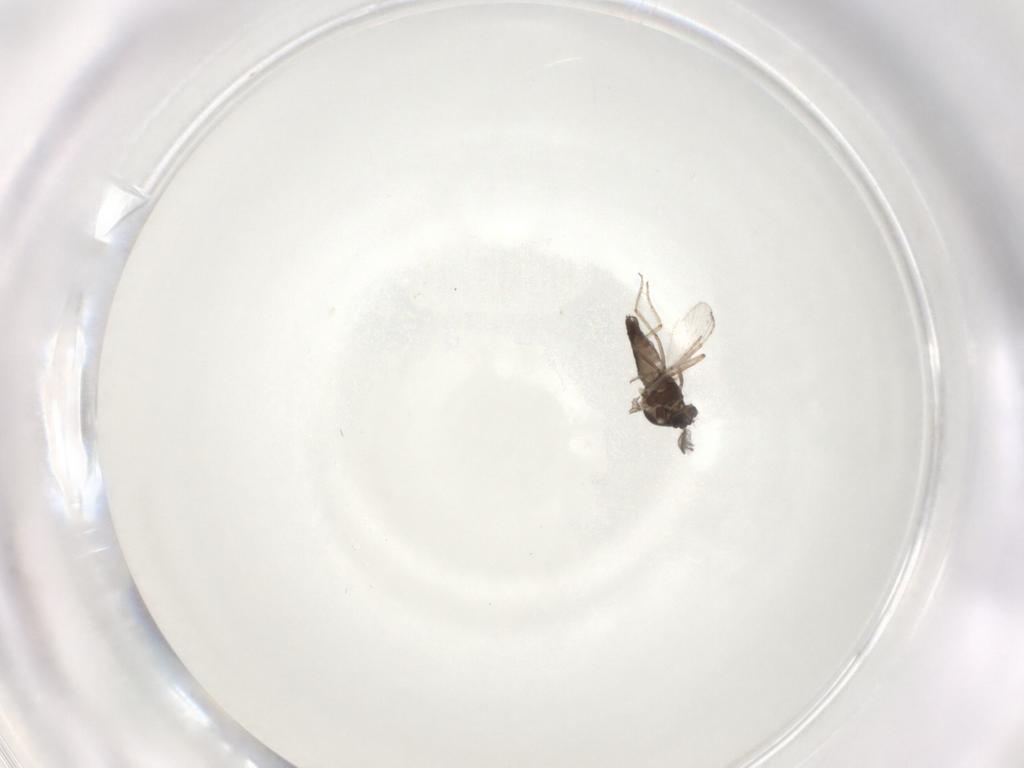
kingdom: Animalia
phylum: Arthropoda
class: Insecta
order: Diptera
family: Ceratopogonidae
